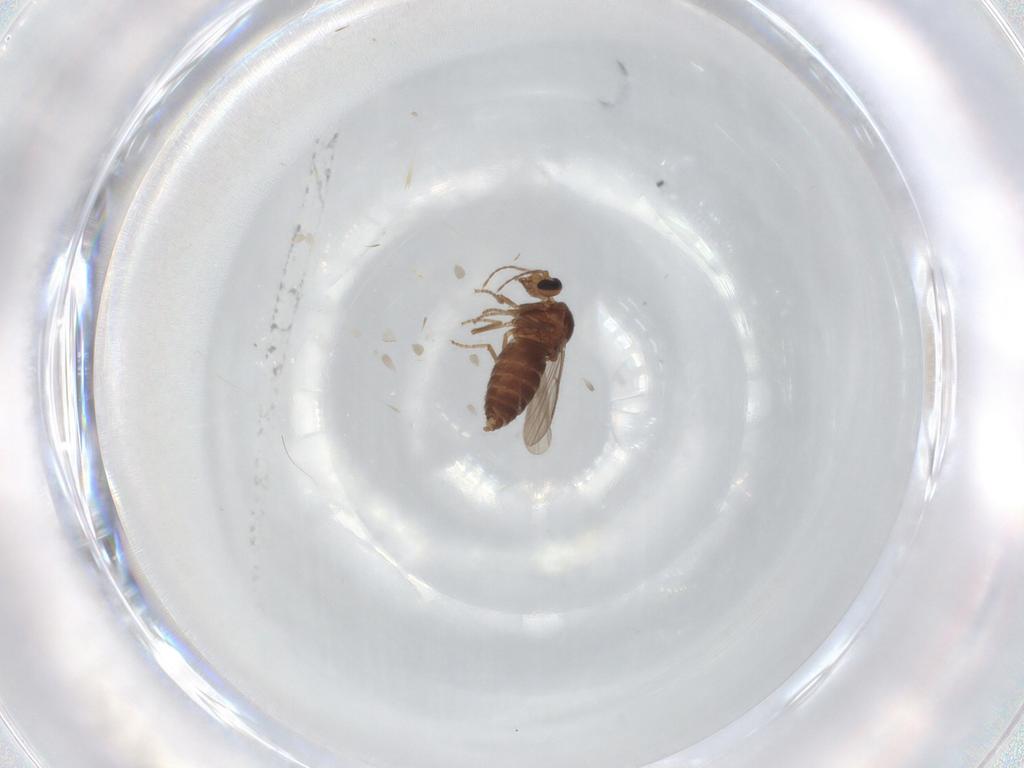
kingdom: Animalia
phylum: Arthropoda
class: Insecta
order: Diptera
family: Ceratopogonidae
